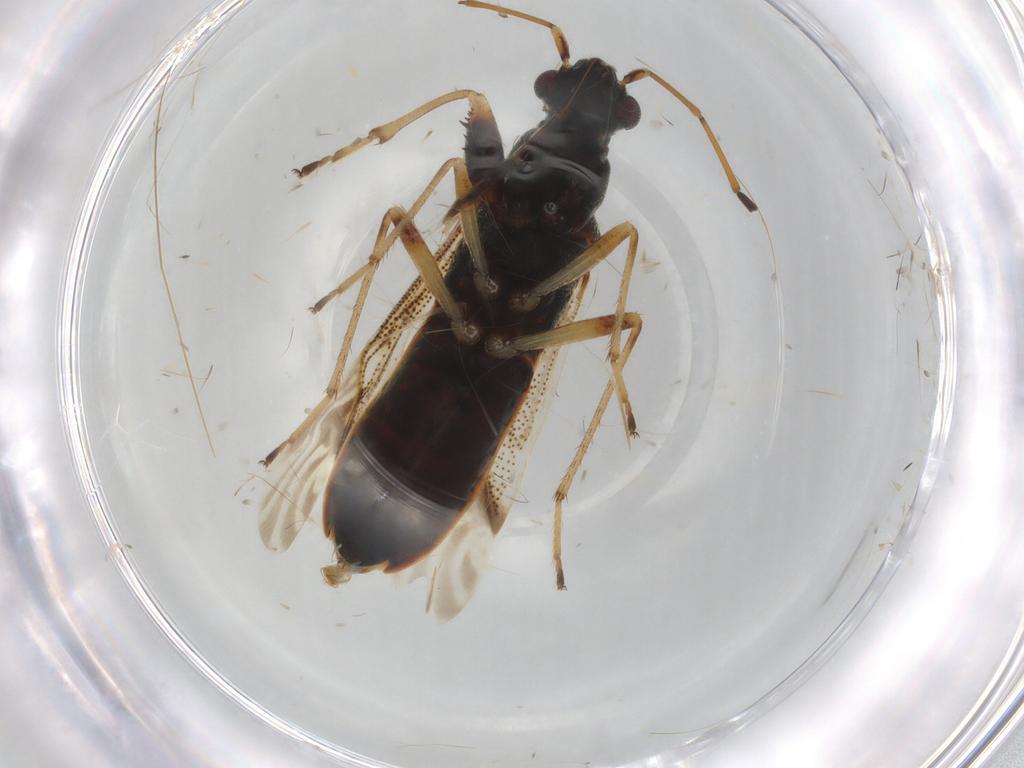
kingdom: Animalia
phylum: Arthropoda
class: Insecta
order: Hemiptera
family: Rhyparochromidae
